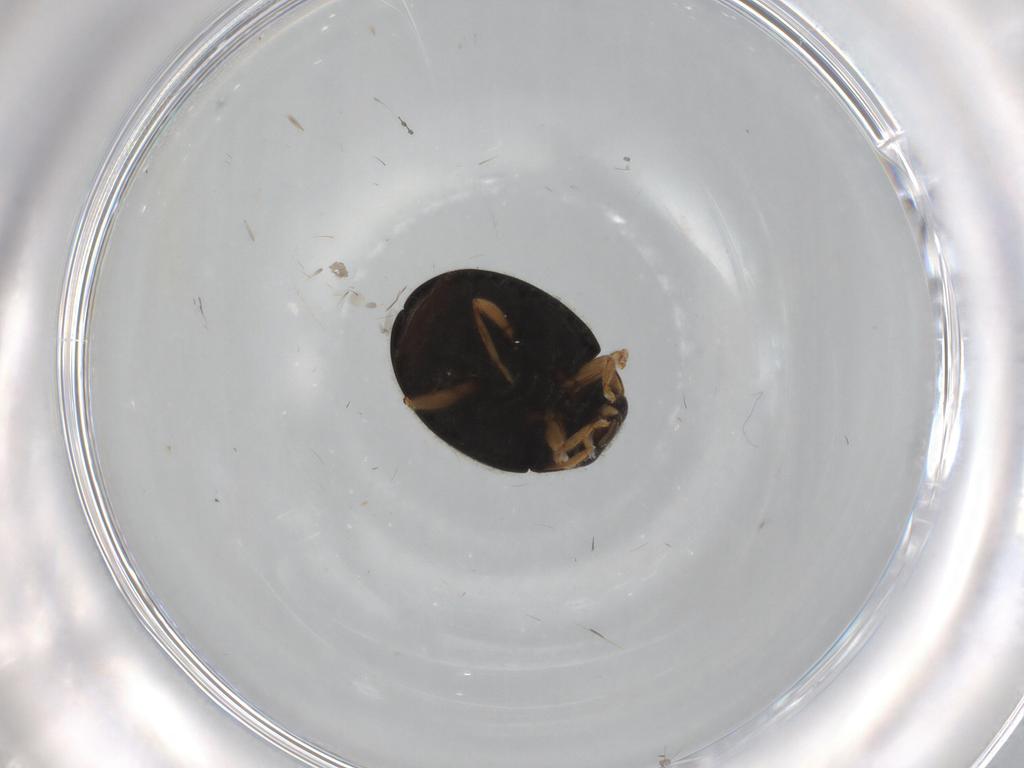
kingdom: Animalia
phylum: Arthropoda
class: Insecta
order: Coleoptera
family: Coccinellidae
